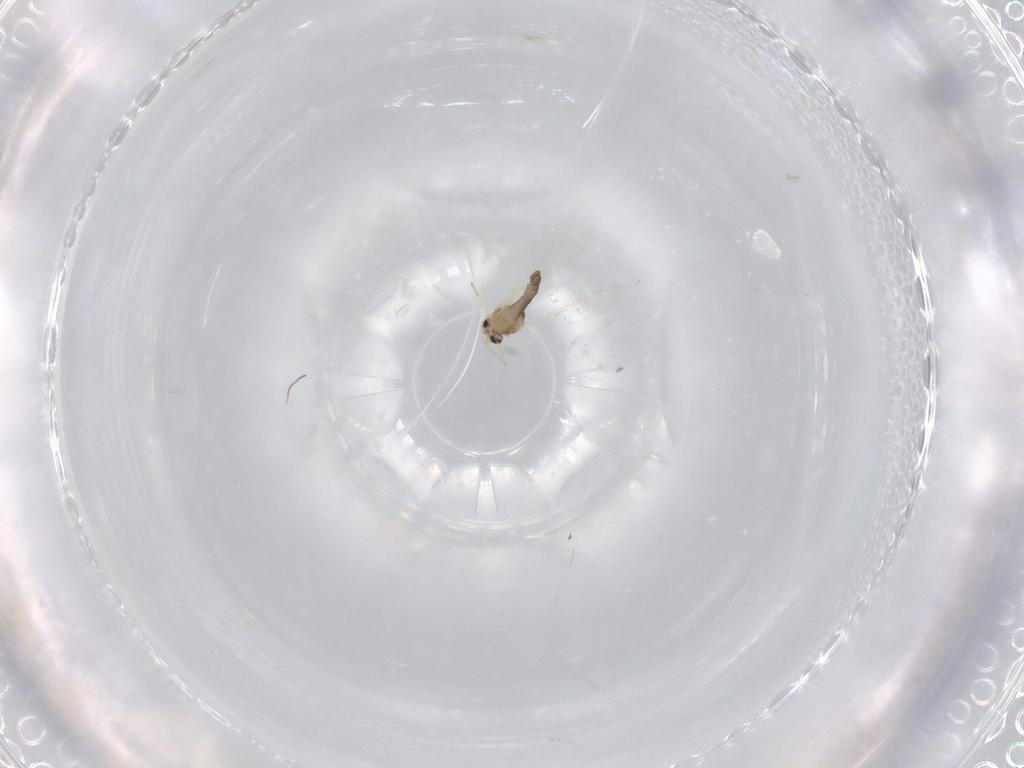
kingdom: Animalia
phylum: Arthropoda
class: Insecta
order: Diptera
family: Chironomidae
